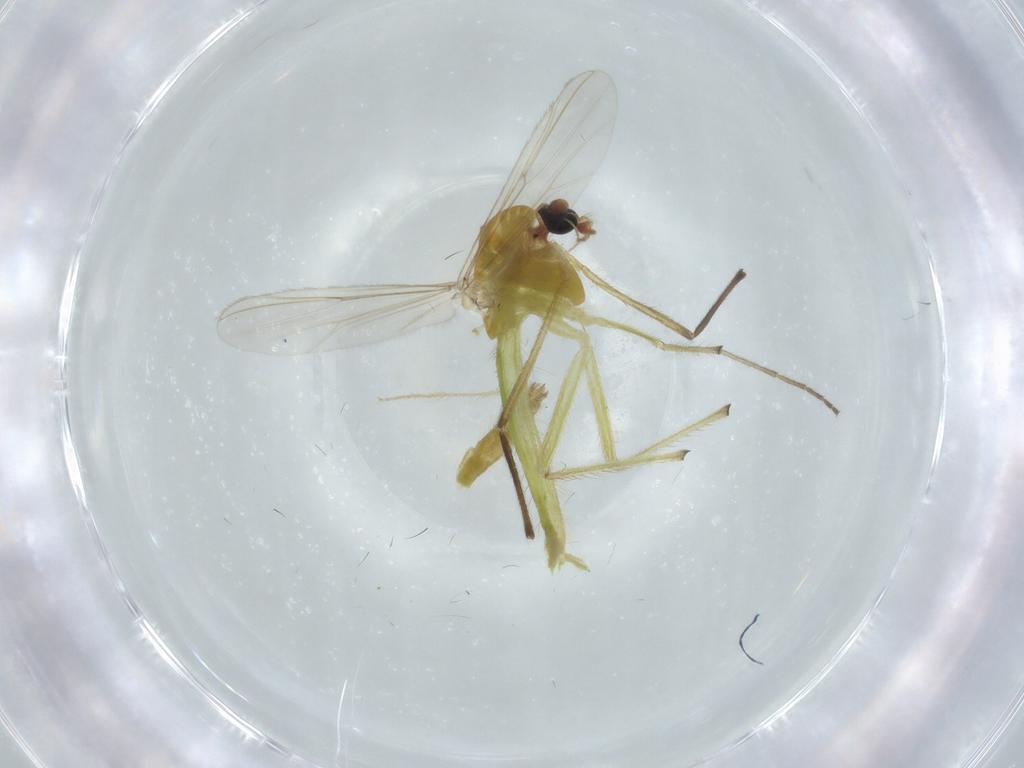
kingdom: Animalia
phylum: Arthropoda
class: Insecta
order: Diptera
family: Chironomidae
